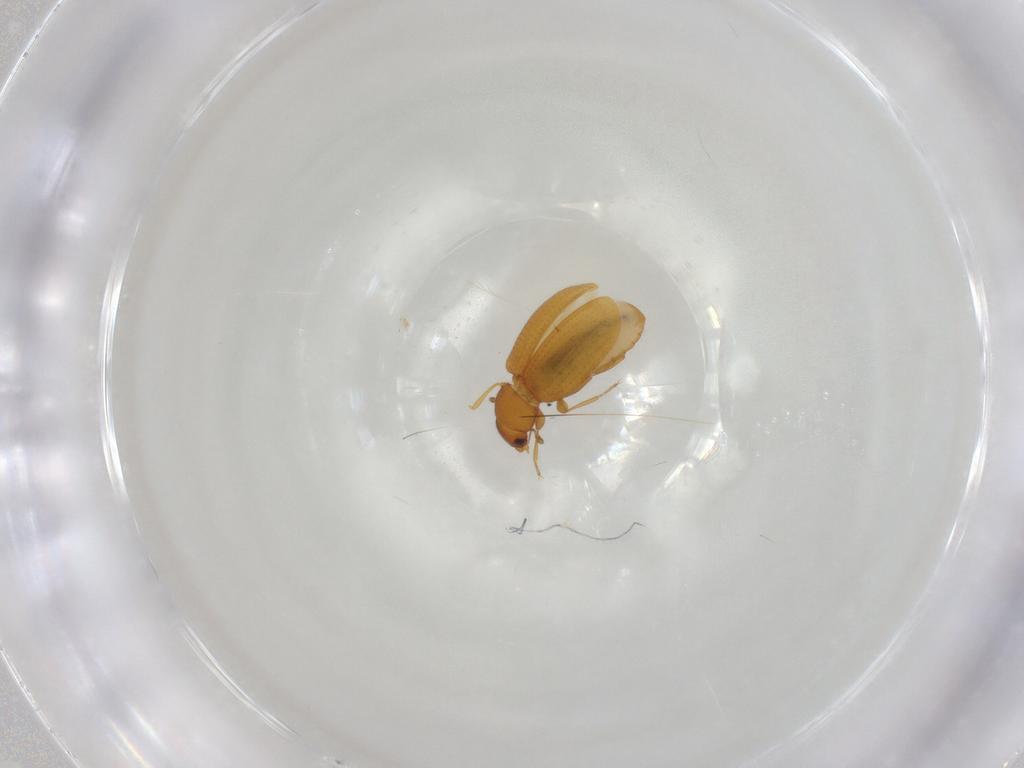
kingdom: Animalia
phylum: Arthropoda
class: Insecta
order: Coleoptera
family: Latridiidae
